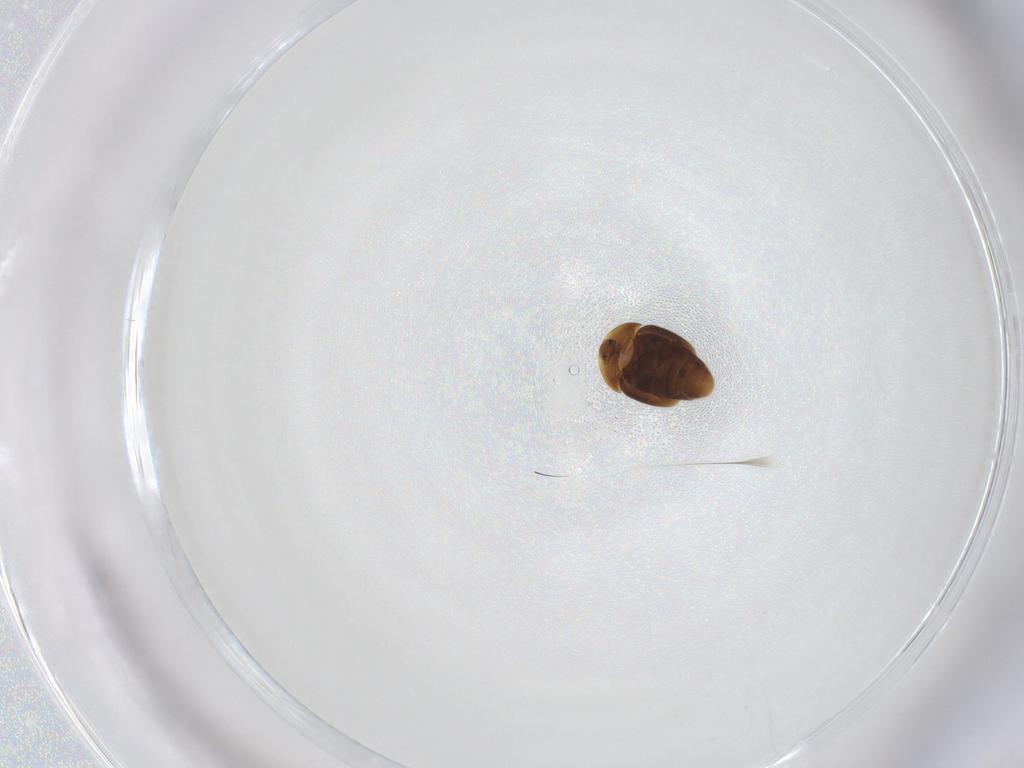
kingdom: Animalia
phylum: Arthropoda
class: Insecta
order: Coleoptera
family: Corylophidae
